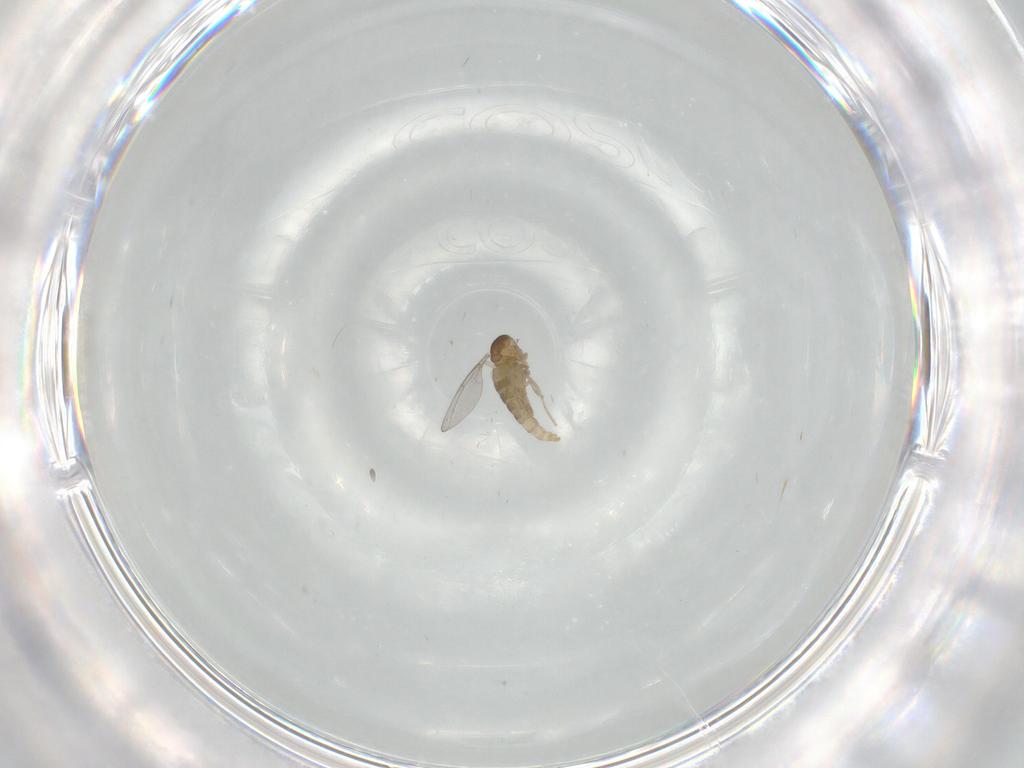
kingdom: Animalia
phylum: Arthropoda
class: Insecta
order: Diptera
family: Cecidomyiidae
